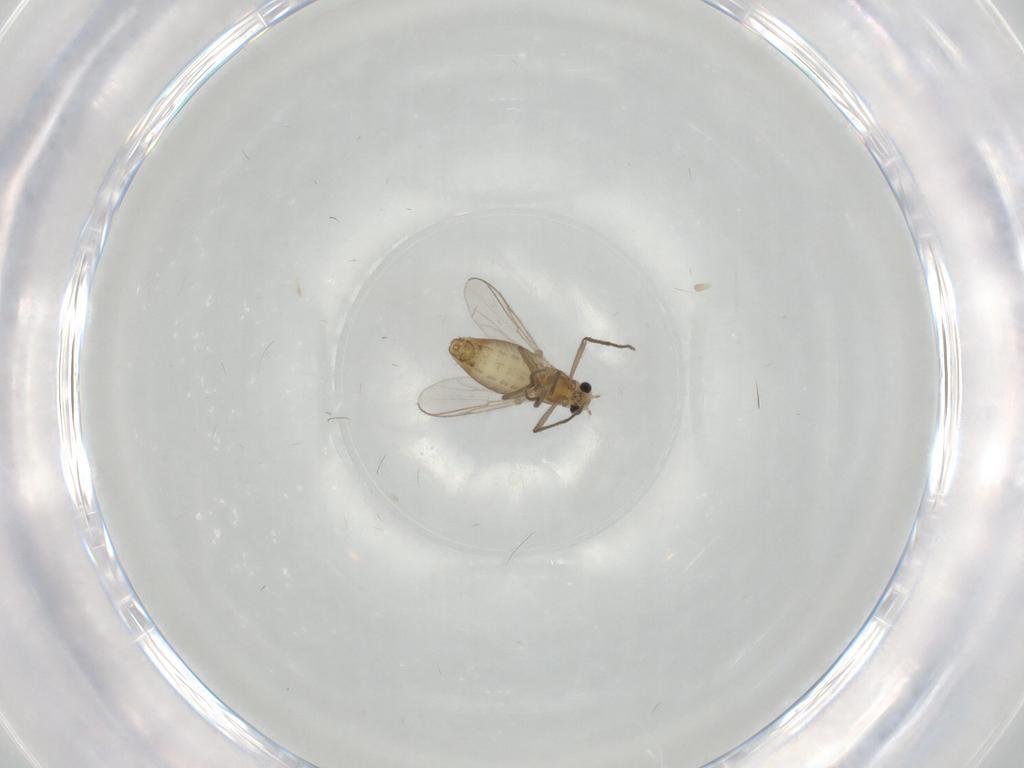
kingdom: Animalia
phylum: Arthropoda
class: Insecta
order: Diptera
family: Chironomidae
